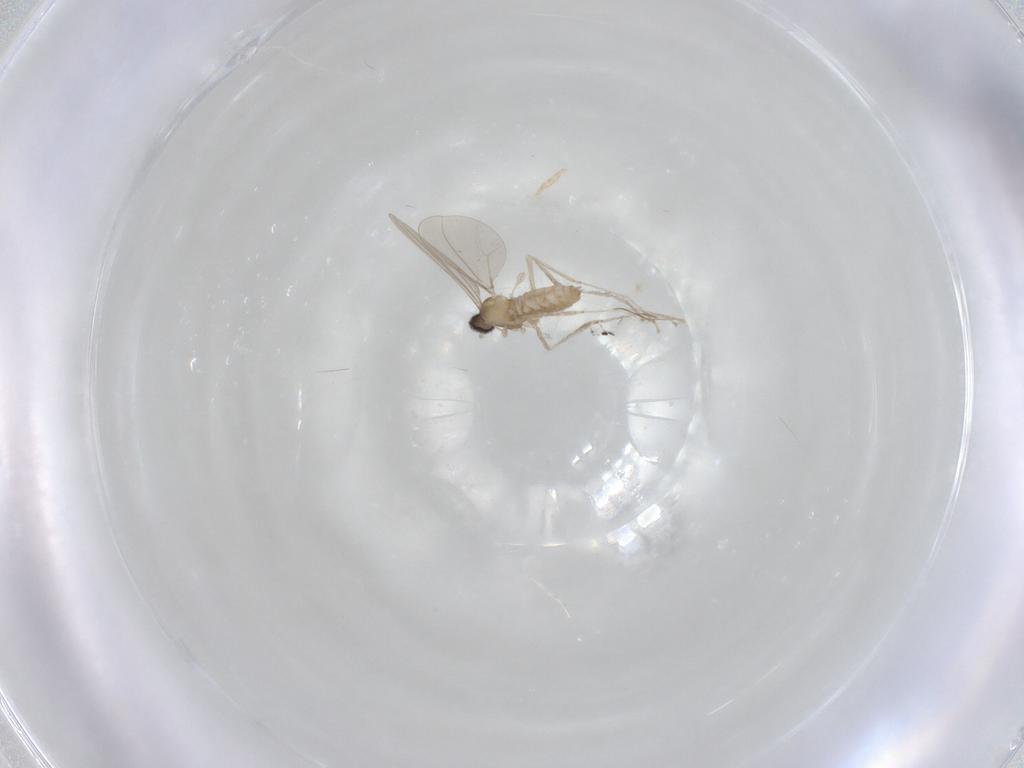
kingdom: Animalia
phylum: Arthropoda
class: Insecta
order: Diptera
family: Cecidomyiidae
